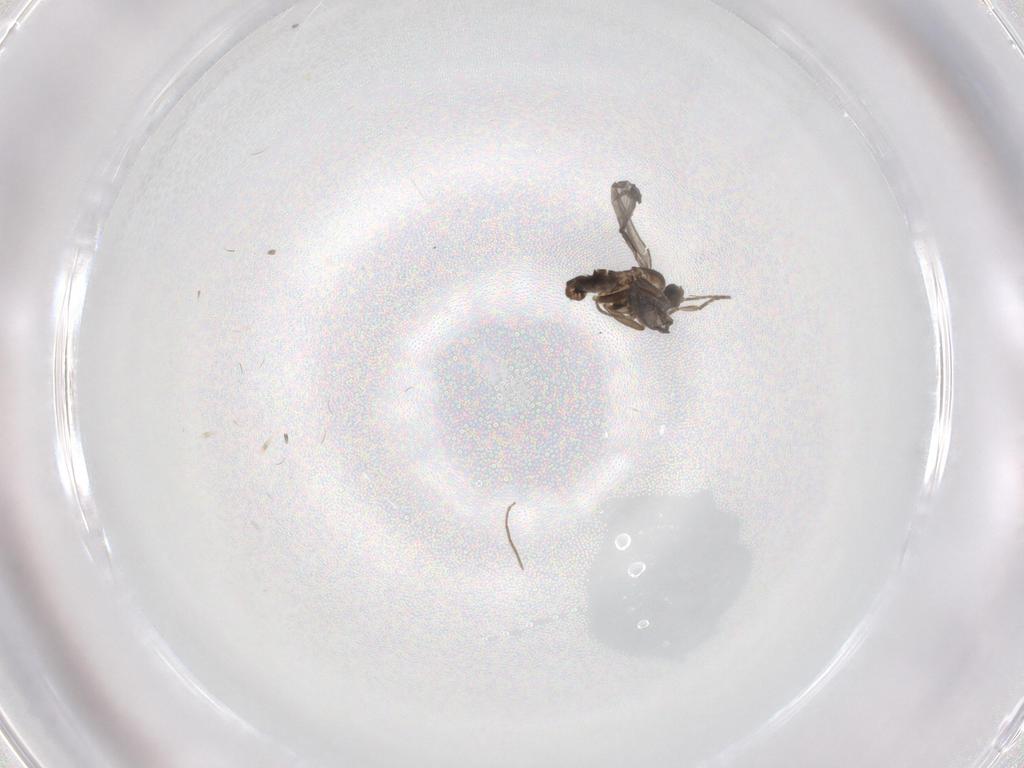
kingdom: Animalia
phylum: Arthropoda
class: Insecta
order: Diptera
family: Chironomidae
